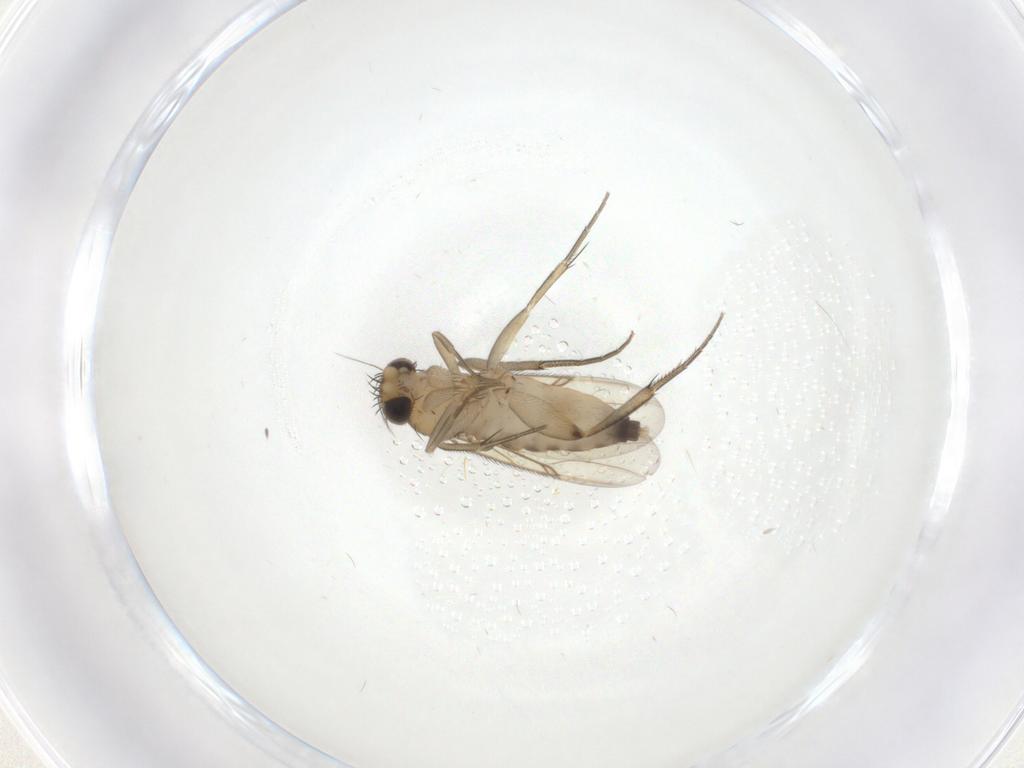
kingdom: Animalia
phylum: Arthropoda
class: Insecta
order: Diptera
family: Phoridae
